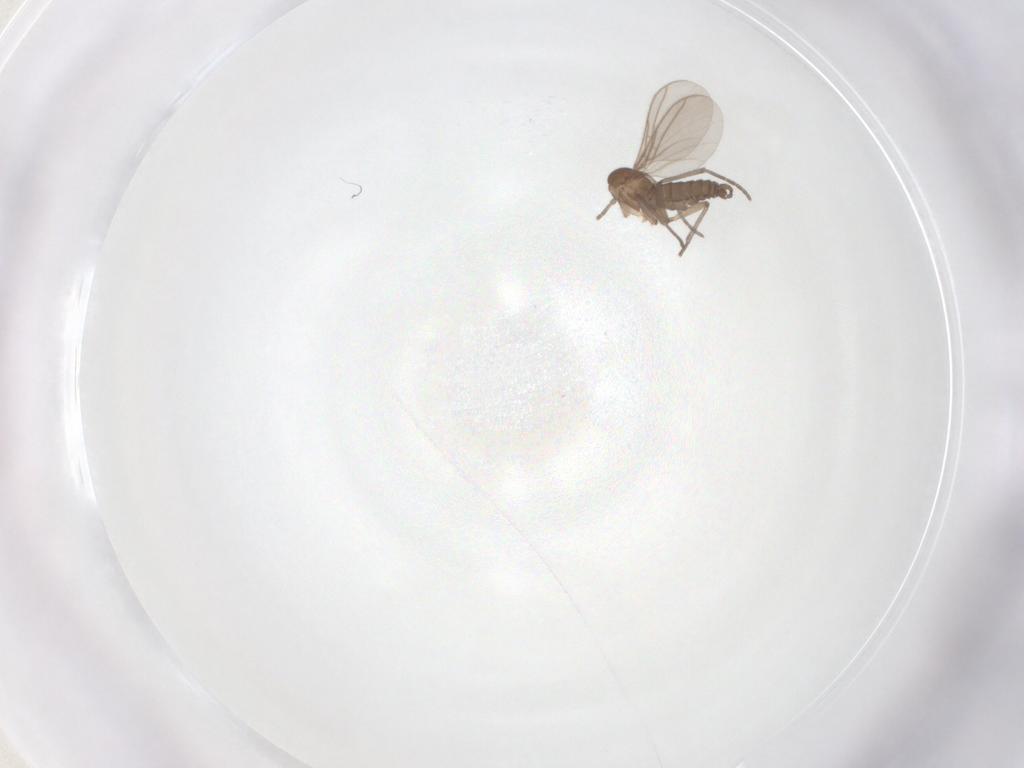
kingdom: Animalia
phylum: Arthropoda
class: Insecta
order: Diptera
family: Sciaridae
